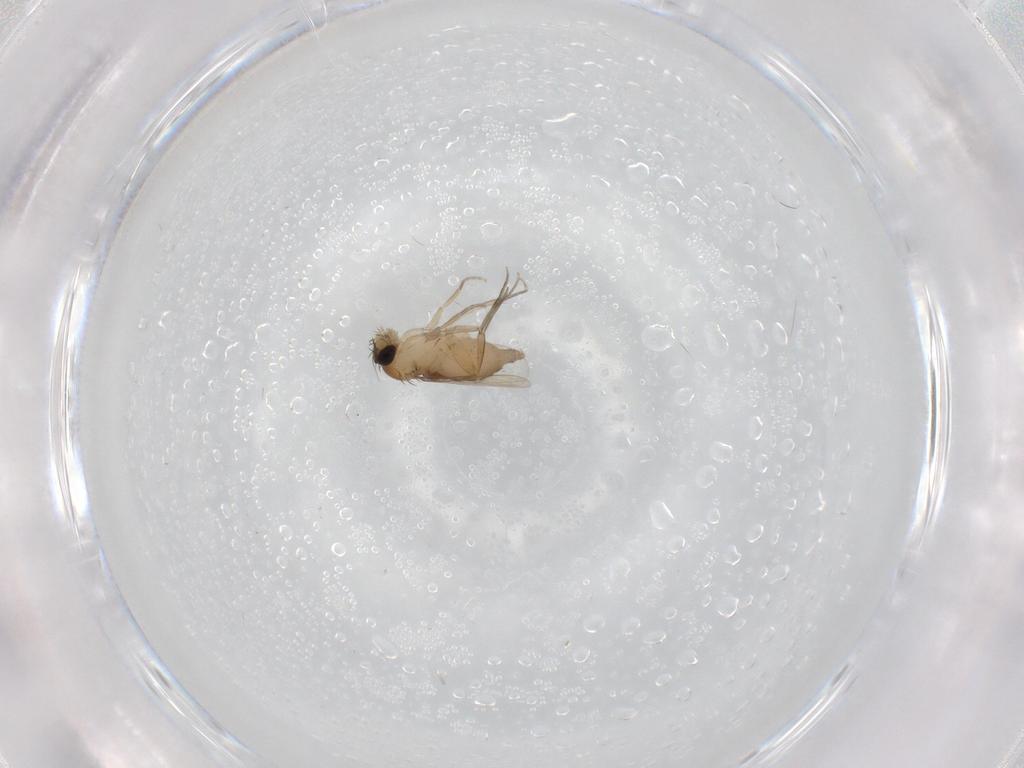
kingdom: Animalia
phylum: Arthropoda
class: Insecta
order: Diptera
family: Phoridae
